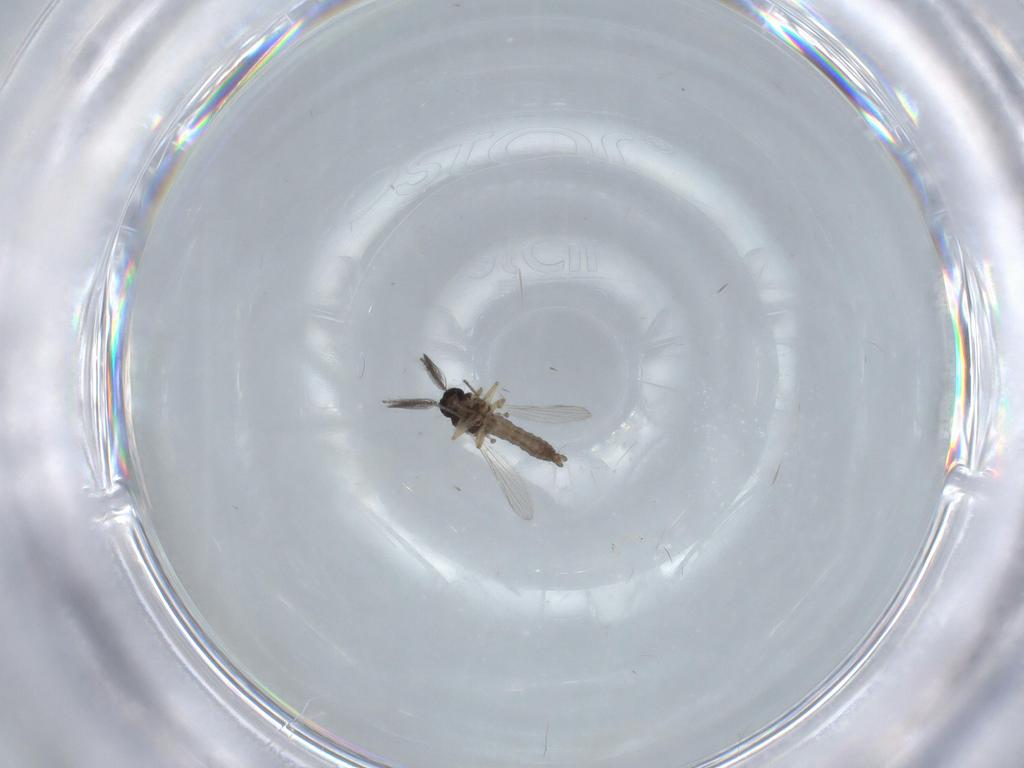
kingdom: Animalia
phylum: Arthropoda
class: Insecta
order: Diptera
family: Ceratopogonidae
